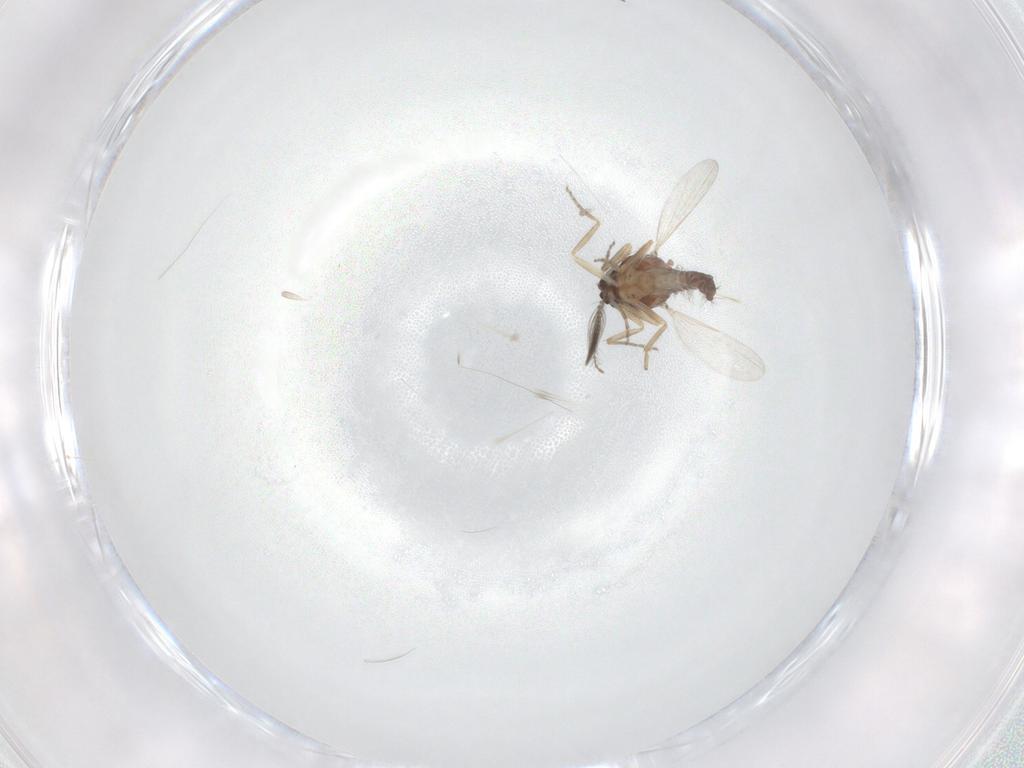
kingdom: Animalia
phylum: Arthropoda
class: Insecta
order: Diptera
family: Ceratopogonidae
